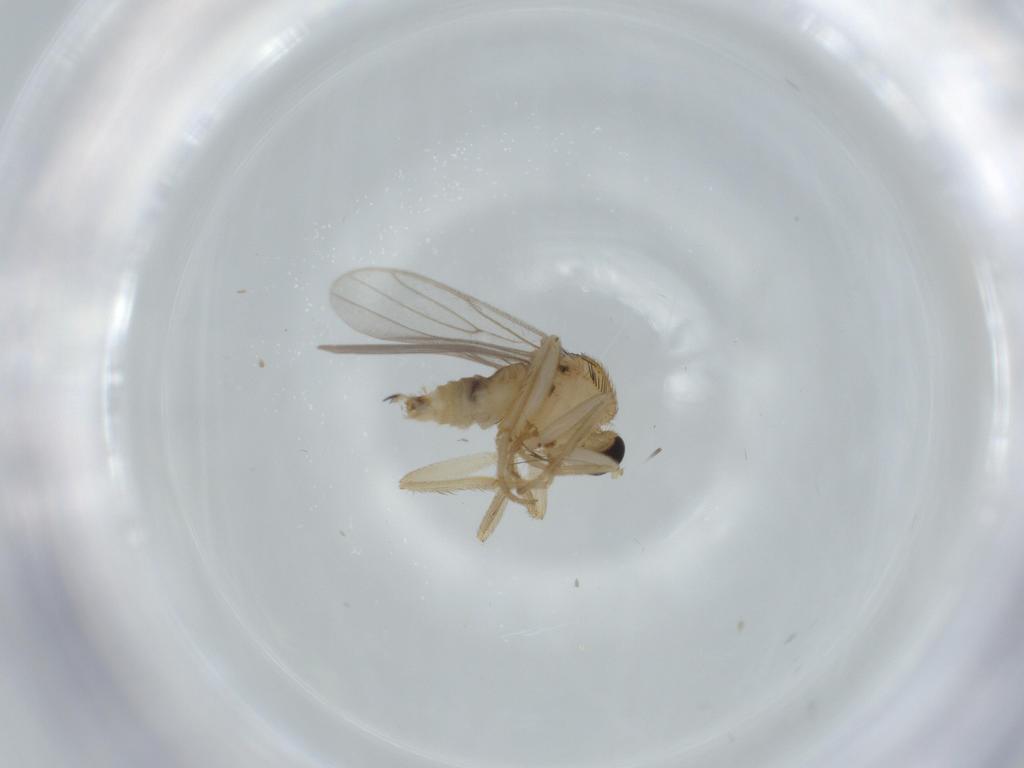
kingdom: Animalia
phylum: Arthropoda
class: Insecta
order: Diptera
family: Hybotidae
